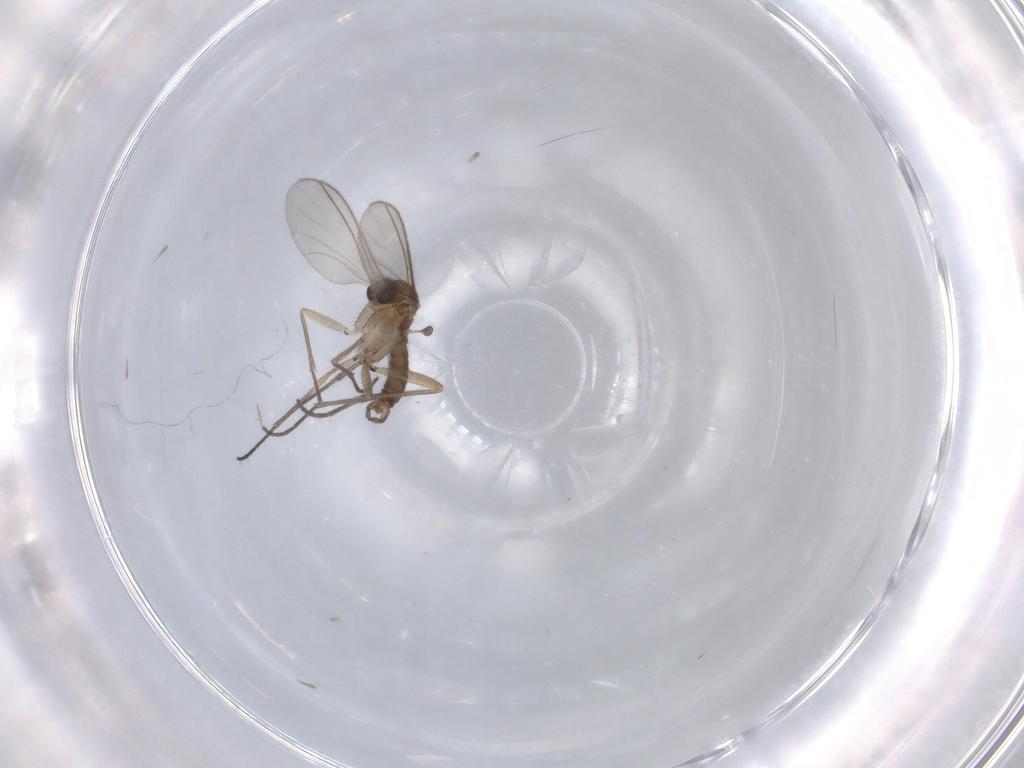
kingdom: Animalia
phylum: Arthropoda
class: Insecta
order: Diptera
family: Sciaridae
